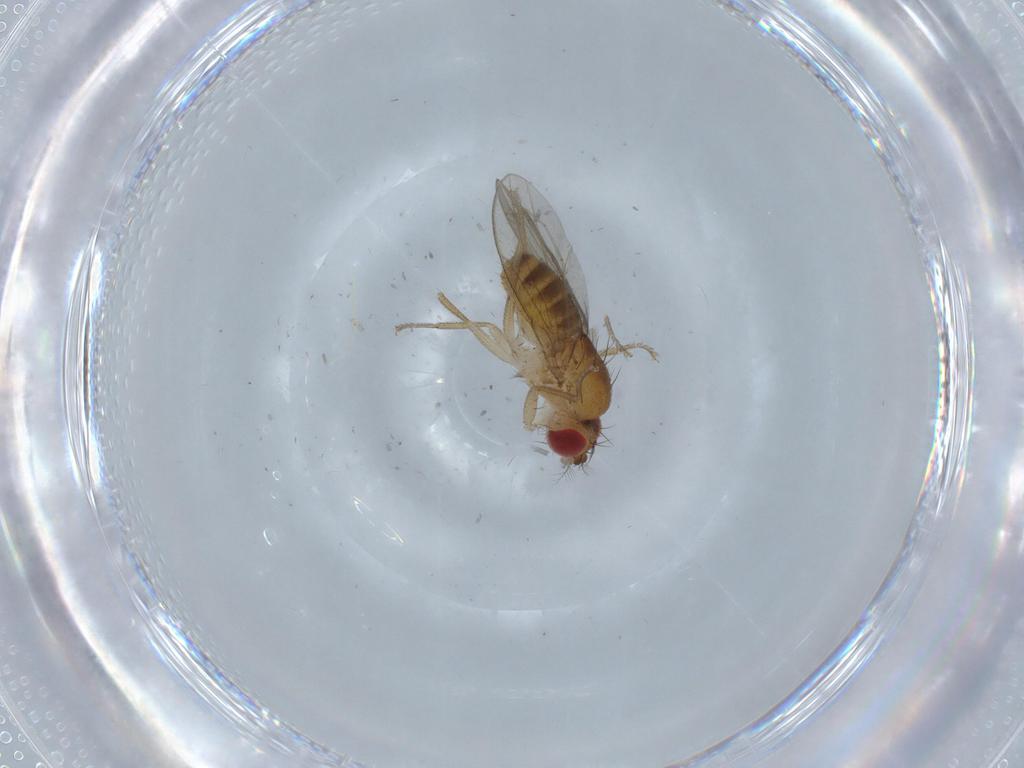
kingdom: Animalia
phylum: Arthropoda
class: Insecta
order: Diptera
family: Drosophilidae
